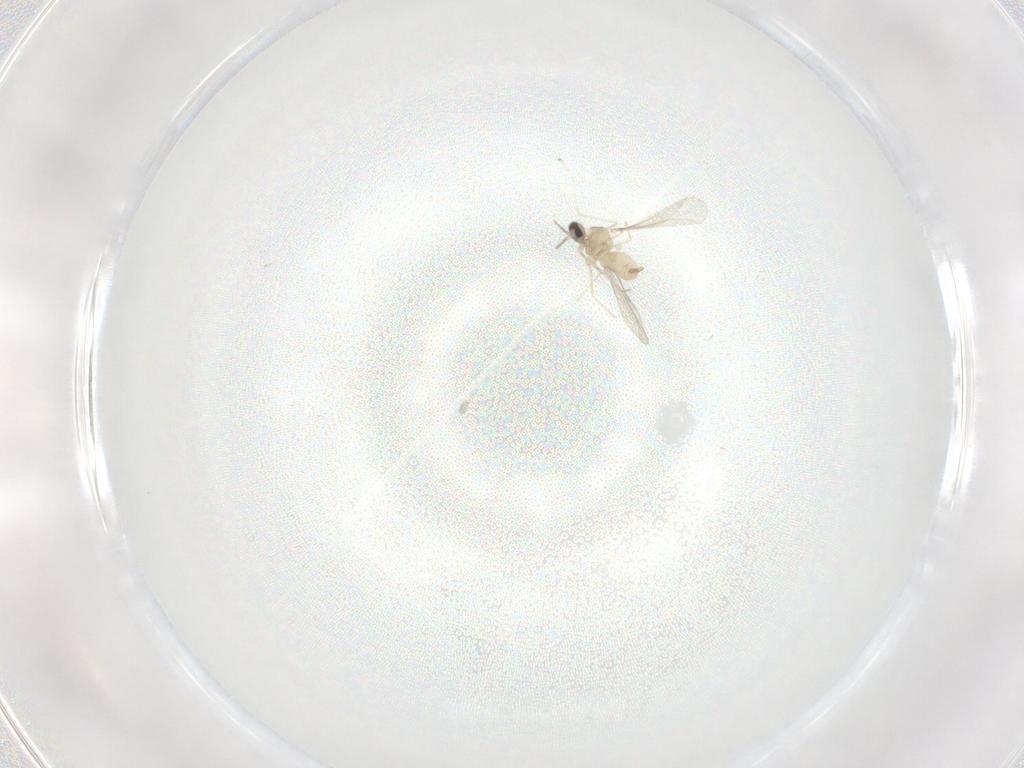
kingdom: Animalia
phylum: Arthropoda
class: Insecta
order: Diptera
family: Cecidomyiidae
